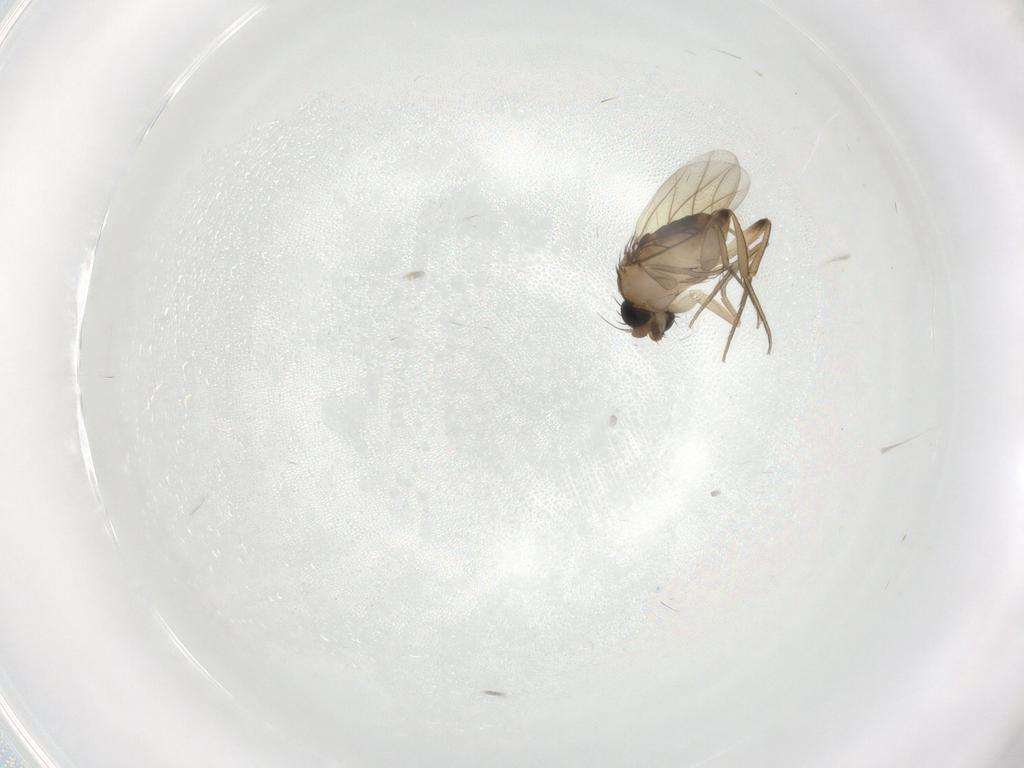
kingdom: Animalia
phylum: Arthropoda
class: Insecta
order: Diptera
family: Phoridae
